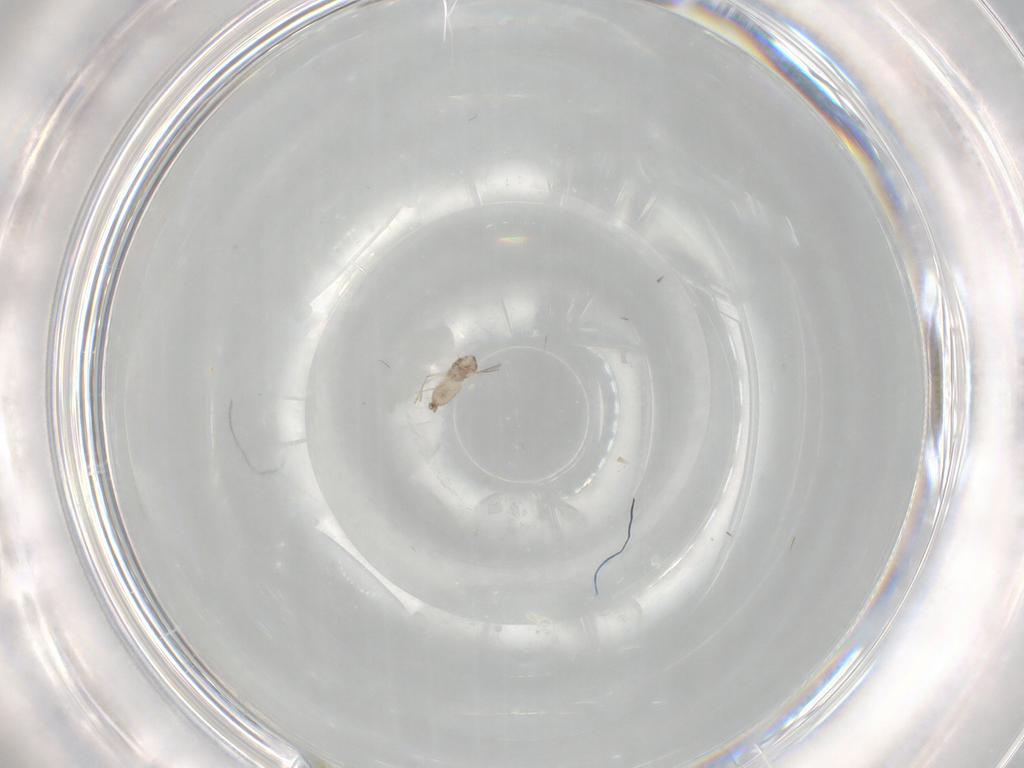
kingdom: Animalia
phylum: Arthropoda
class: Insecta
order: Diptera
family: Cecidomyiidae
